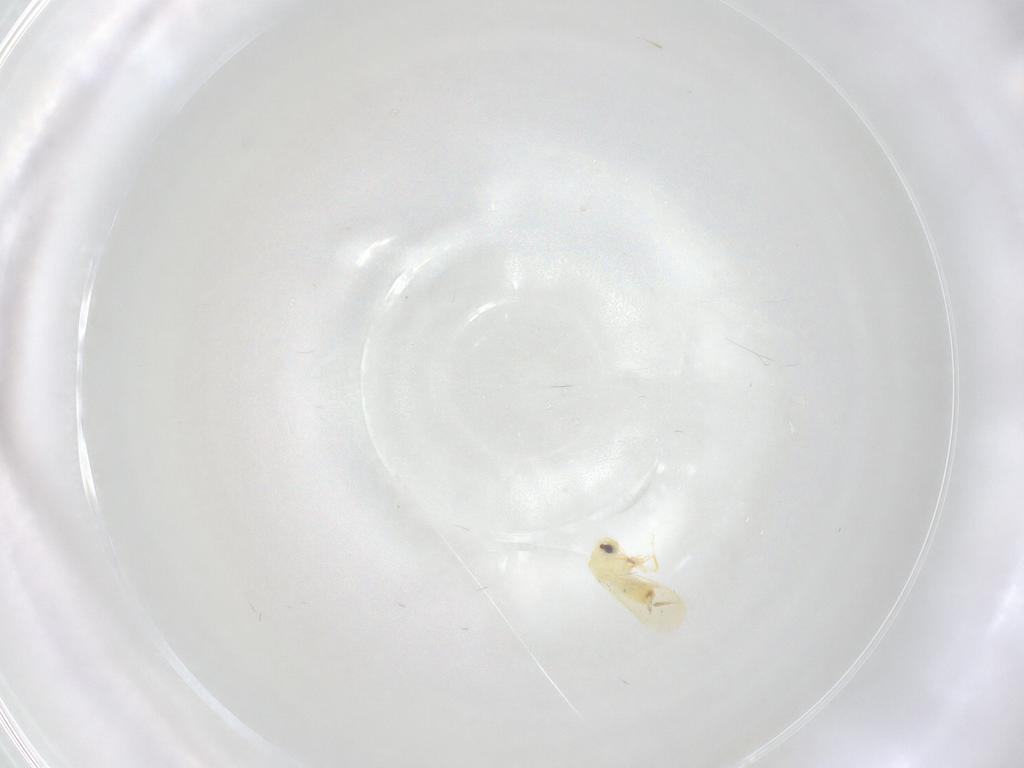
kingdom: Animalia
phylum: Arthropoda
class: Insecta
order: Hemiptera
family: Aleyrodidae
